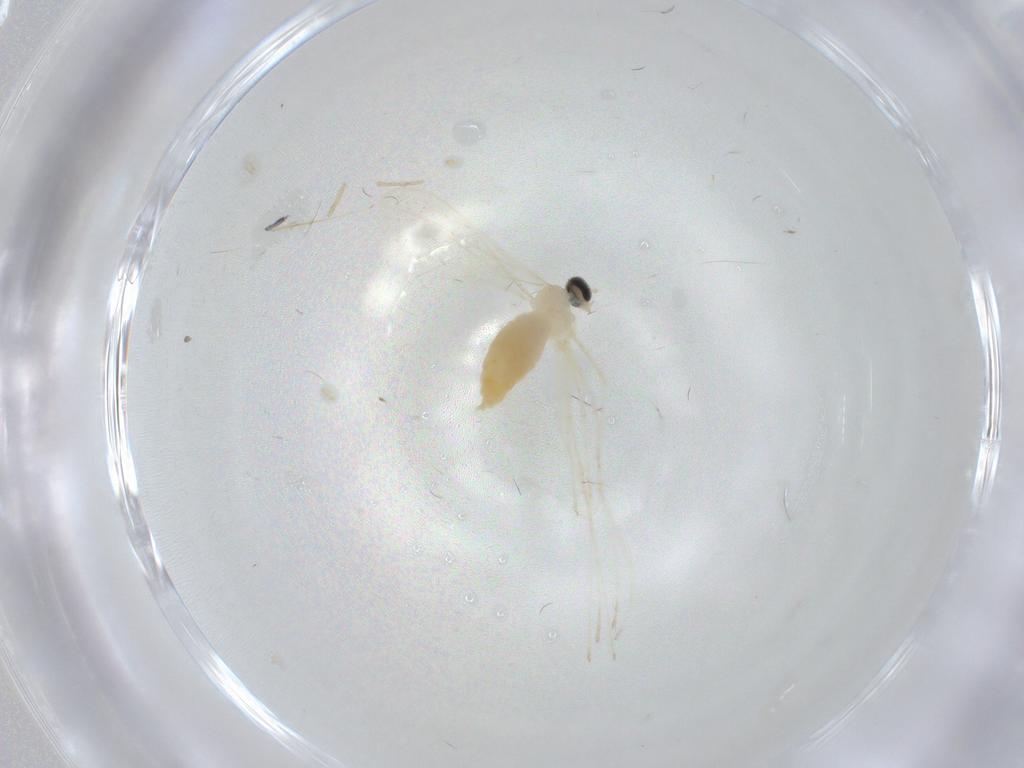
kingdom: Animalia
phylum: Arthropoda
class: Insecta
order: Diptera
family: Cecidomyiidae
